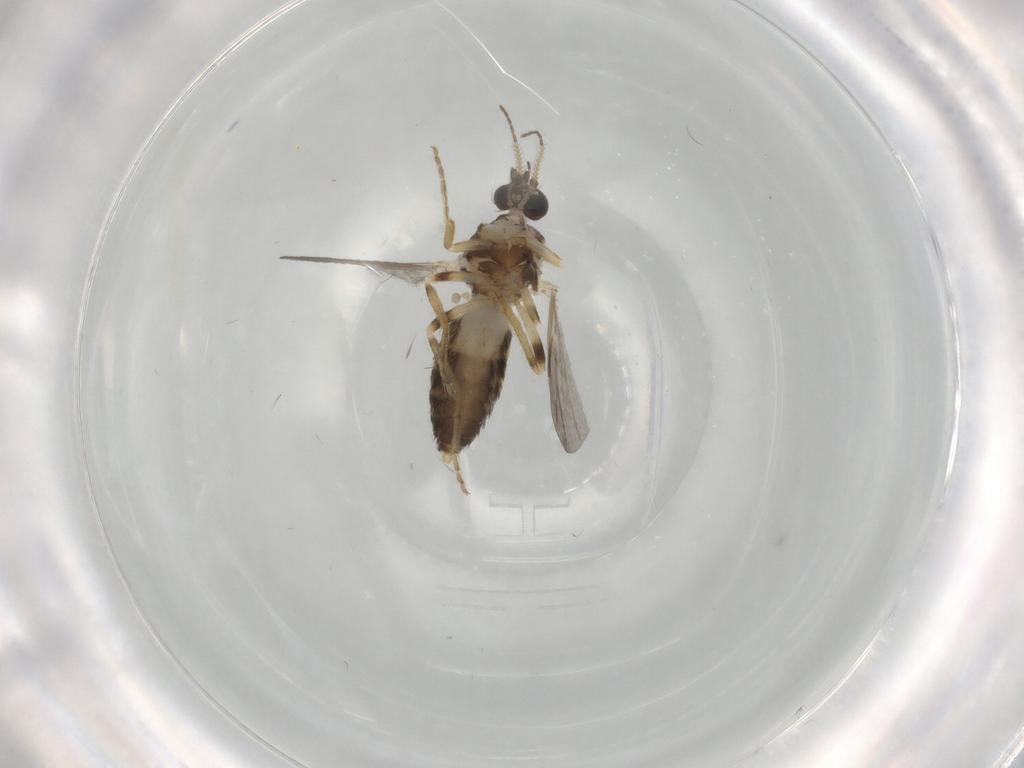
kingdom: Animalia
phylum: Arthropoda
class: Insecta
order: Diptera
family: Ceratopogonidae
